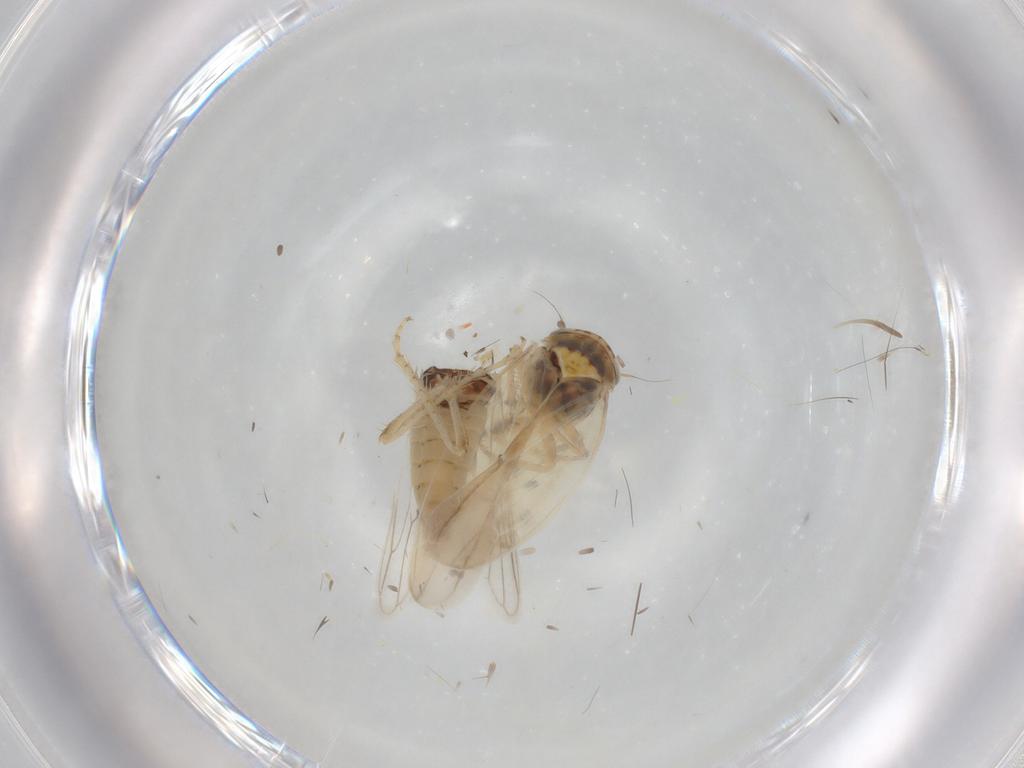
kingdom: Animalia
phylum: Arthropoda
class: Insecta
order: Hemiptera
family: Cicadellidae
